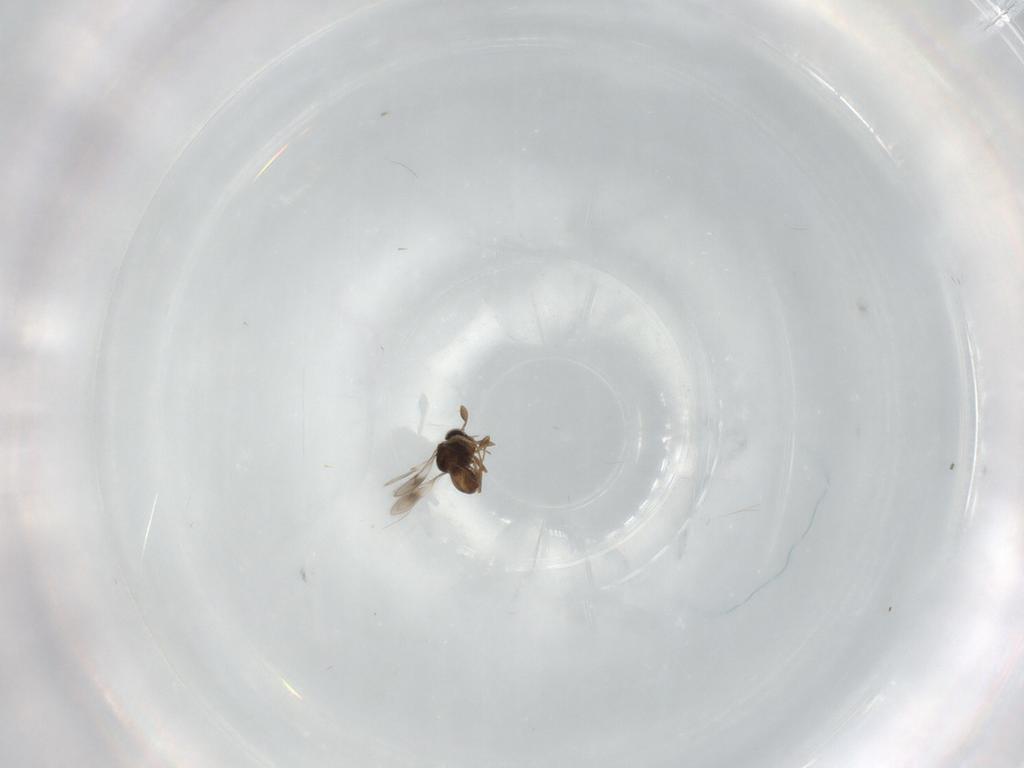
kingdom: Animalia
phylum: Arthropoda
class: Insecta
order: Hymenoptera
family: Scelionidae
